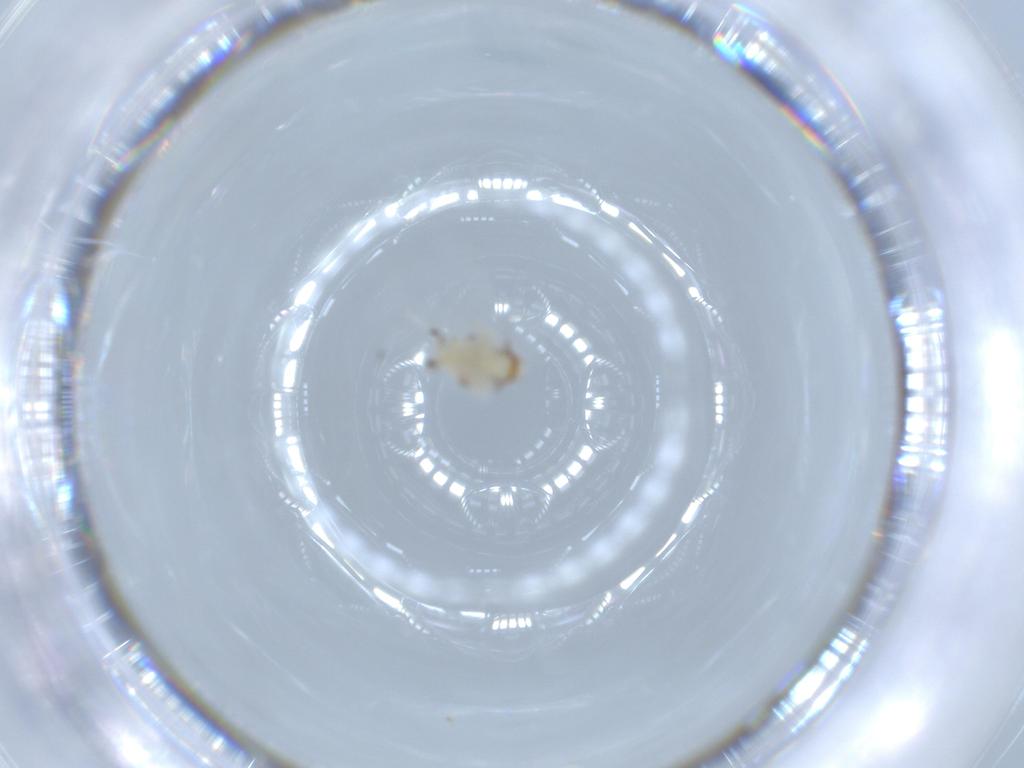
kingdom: Animalia
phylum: Arthropoda
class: Insecta
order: Hemiptera
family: Nogodinidae
